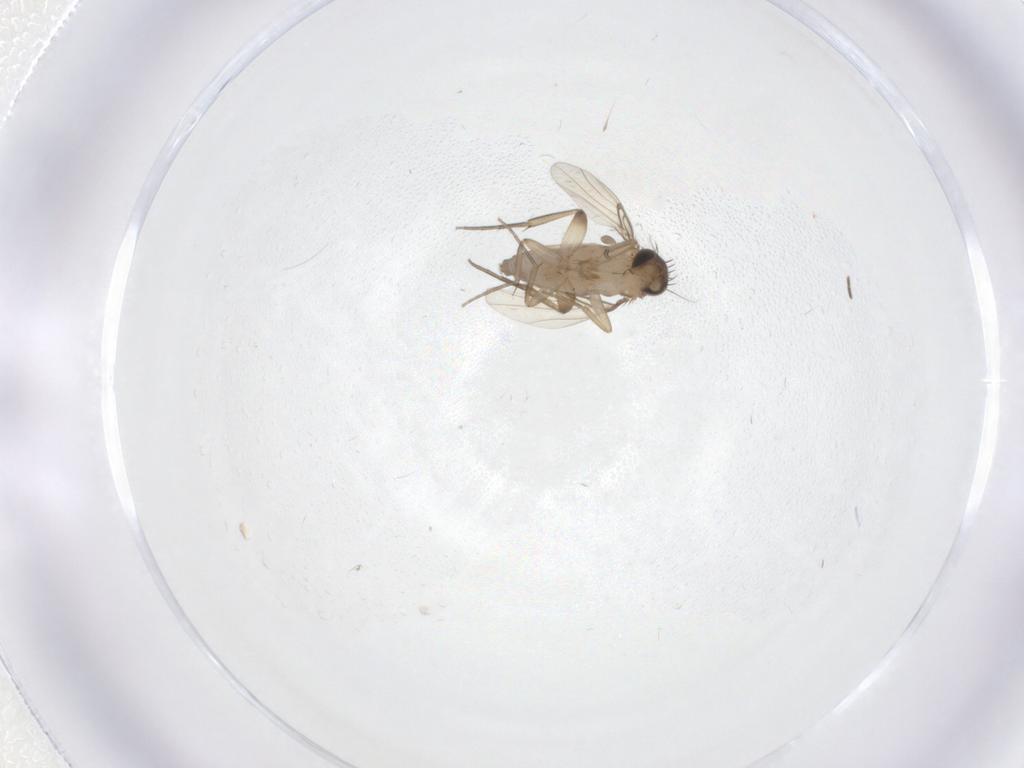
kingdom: Animalia
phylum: Arthropoda
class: Insecta
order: Diptera
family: Phoridae
